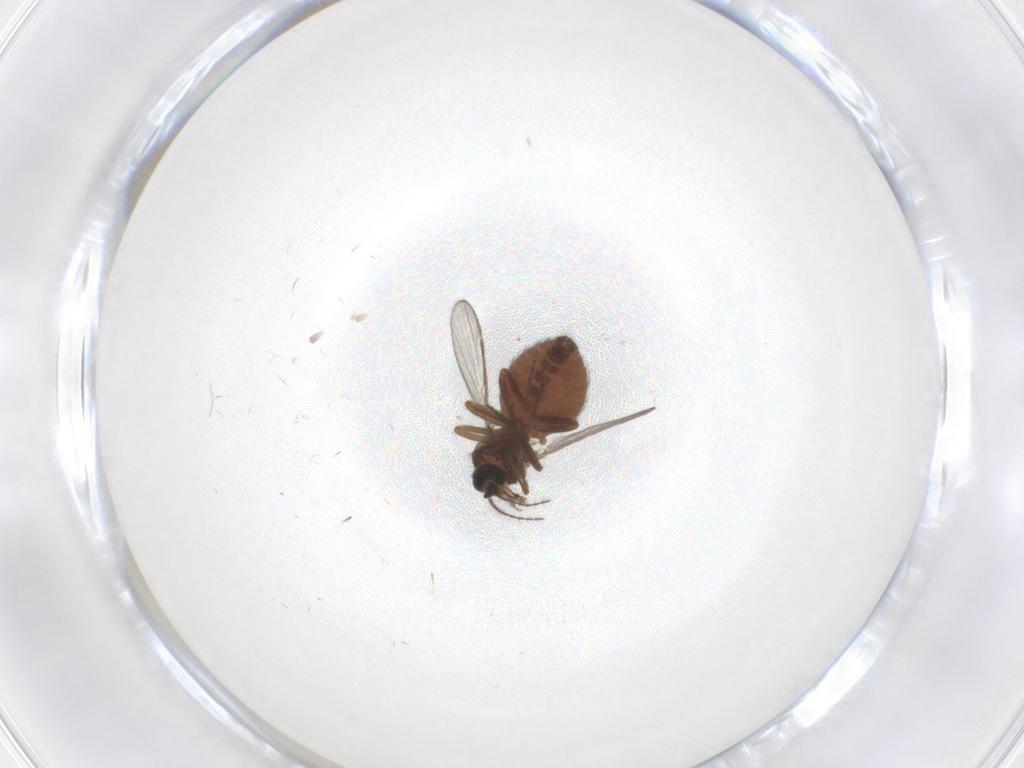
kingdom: Animalia
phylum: Arthropoda
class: Insecta
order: Diptera
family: Ceratopogonidae
